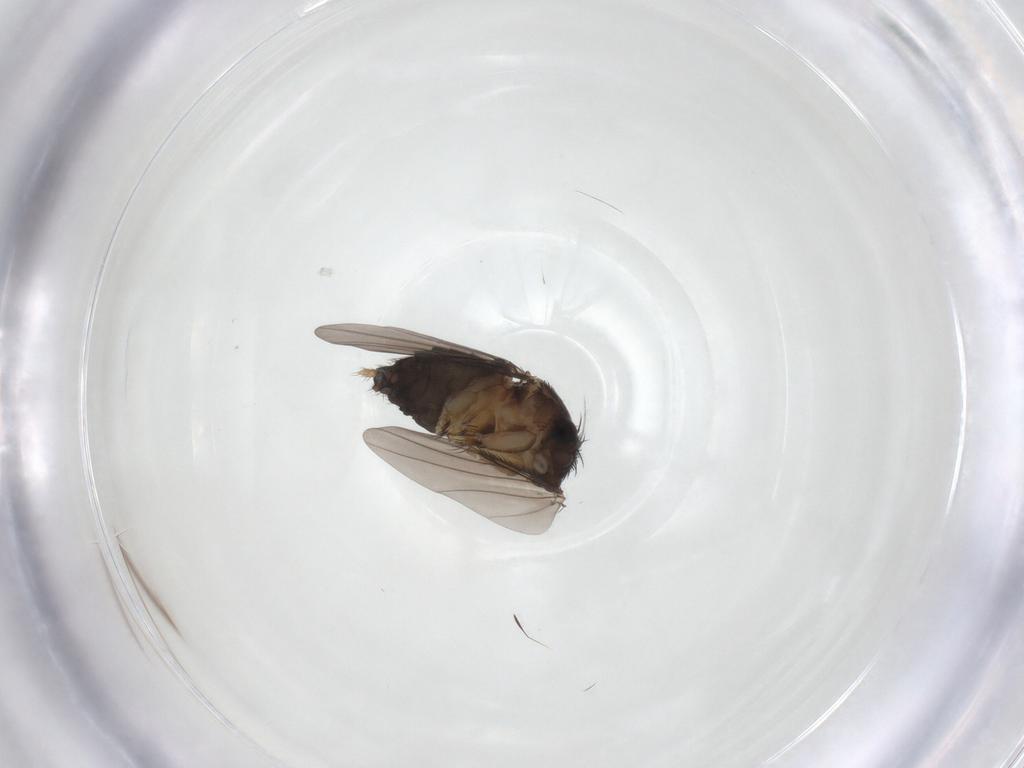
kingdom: Animalia
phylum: Arthropoda
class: Insecta
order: Diptera
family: Phoridae
